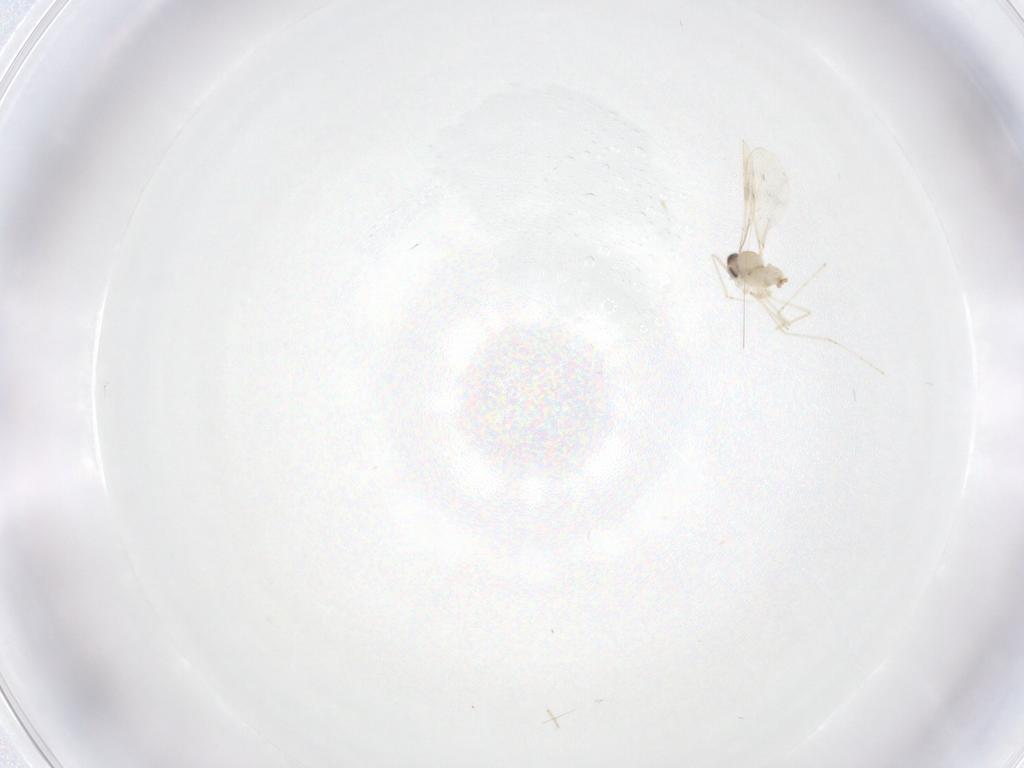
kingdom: Animalia
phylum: Arthropoda
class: Insecta
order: Diptera
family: Cecidomyiidae
